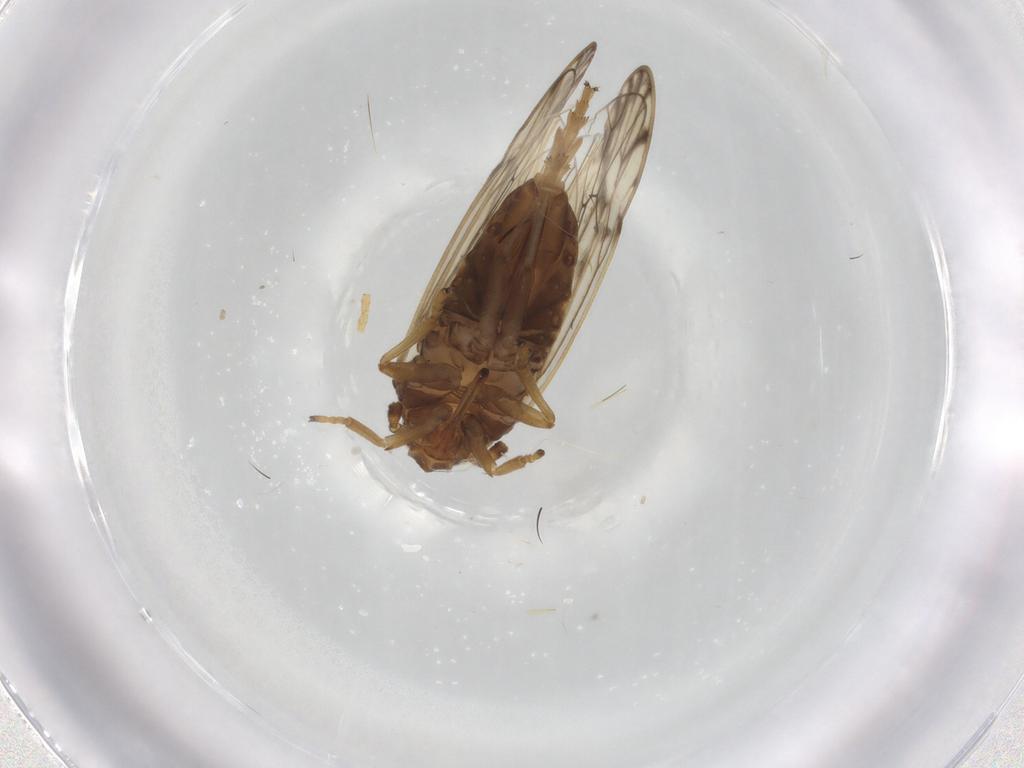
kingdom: Animalia
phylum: Arthropoda
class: Insecta
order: Hemiptera
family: Delphacidae
